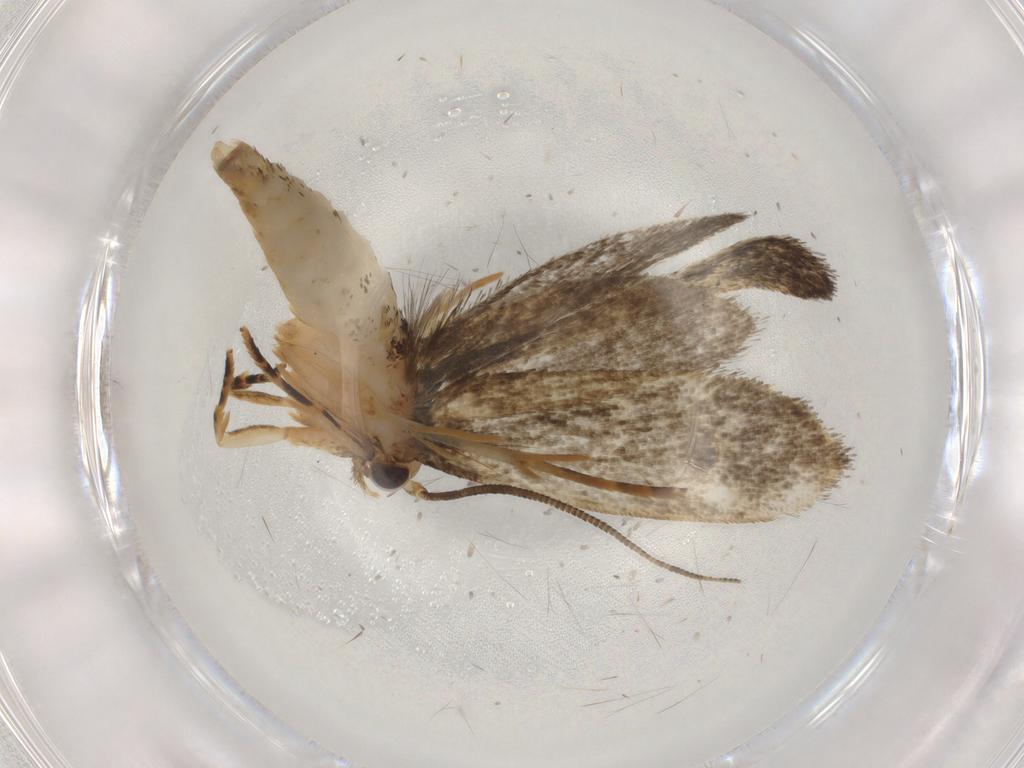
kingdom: Animalia
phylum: Arthropoda
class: Insecta
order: Lepidoptera
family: Tineidae
